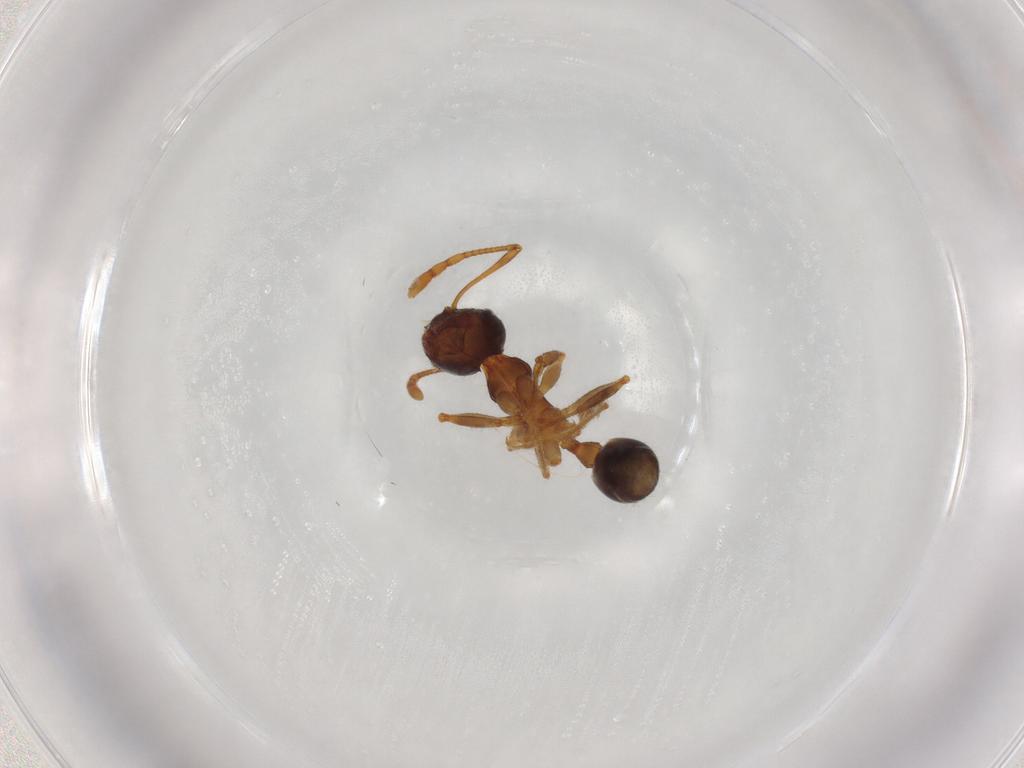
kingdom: Animalia
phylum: Arthropoda
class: Insecta
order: Hymenoptera
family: Formicidae
